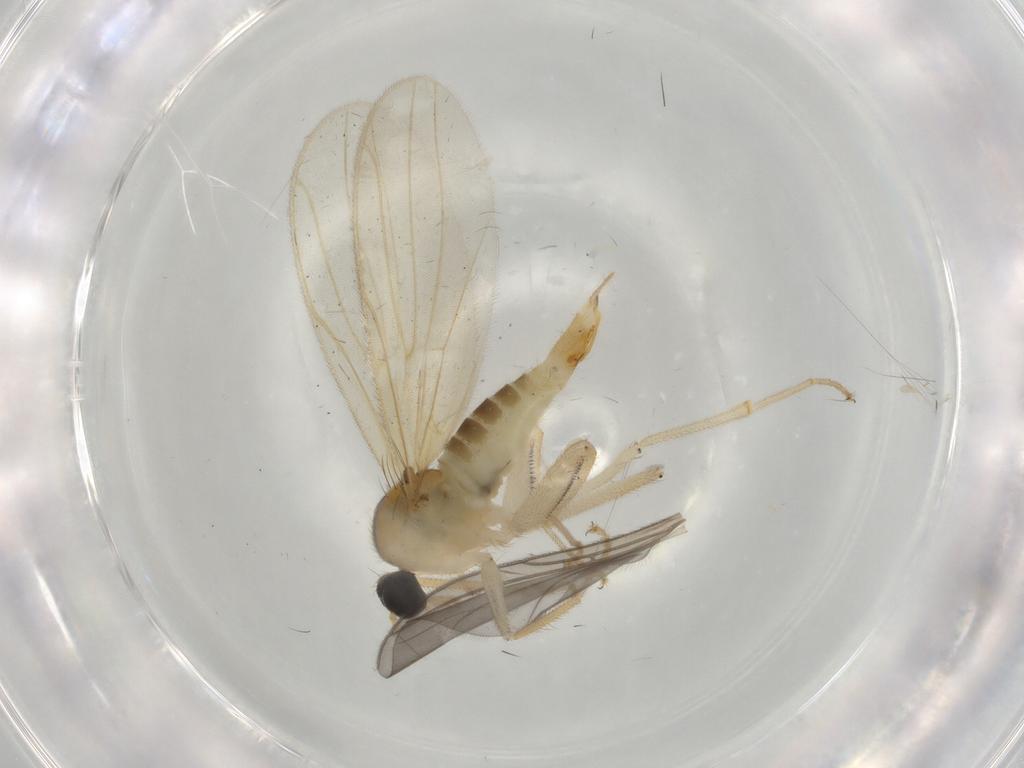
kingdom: Animalia
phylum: Arthropoda
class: Insecta
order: Diptera
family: Hybotidae
